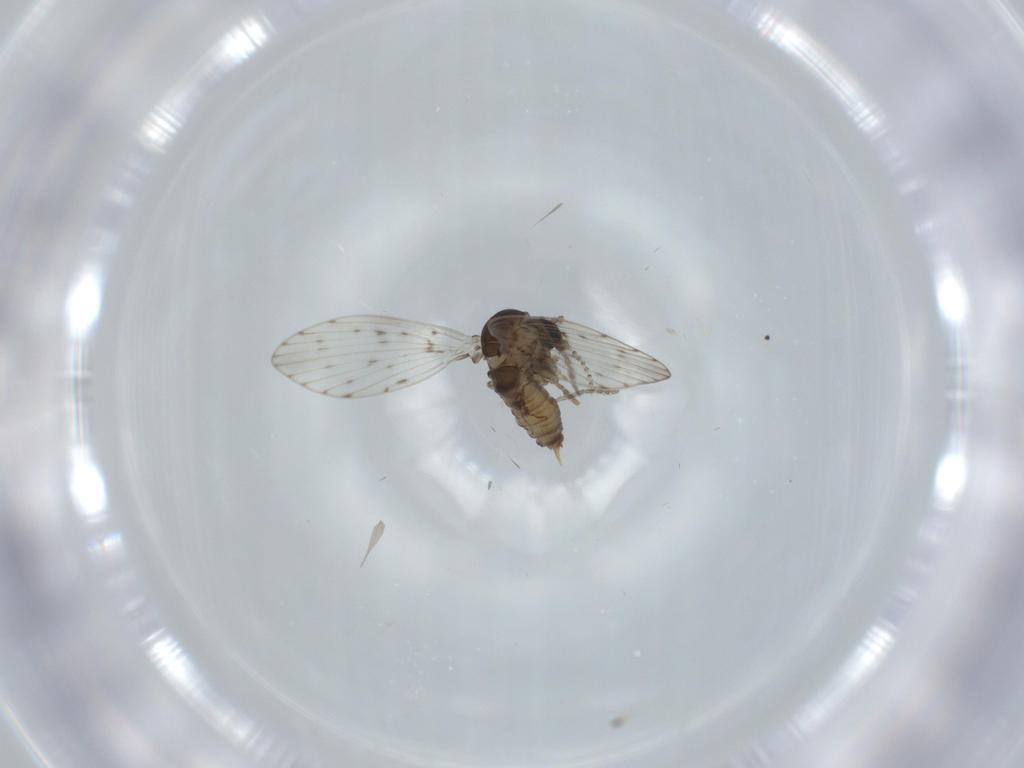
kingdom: Animalia
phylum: Arthropoda
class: Insecta
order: Diptera
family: Psychodidae
